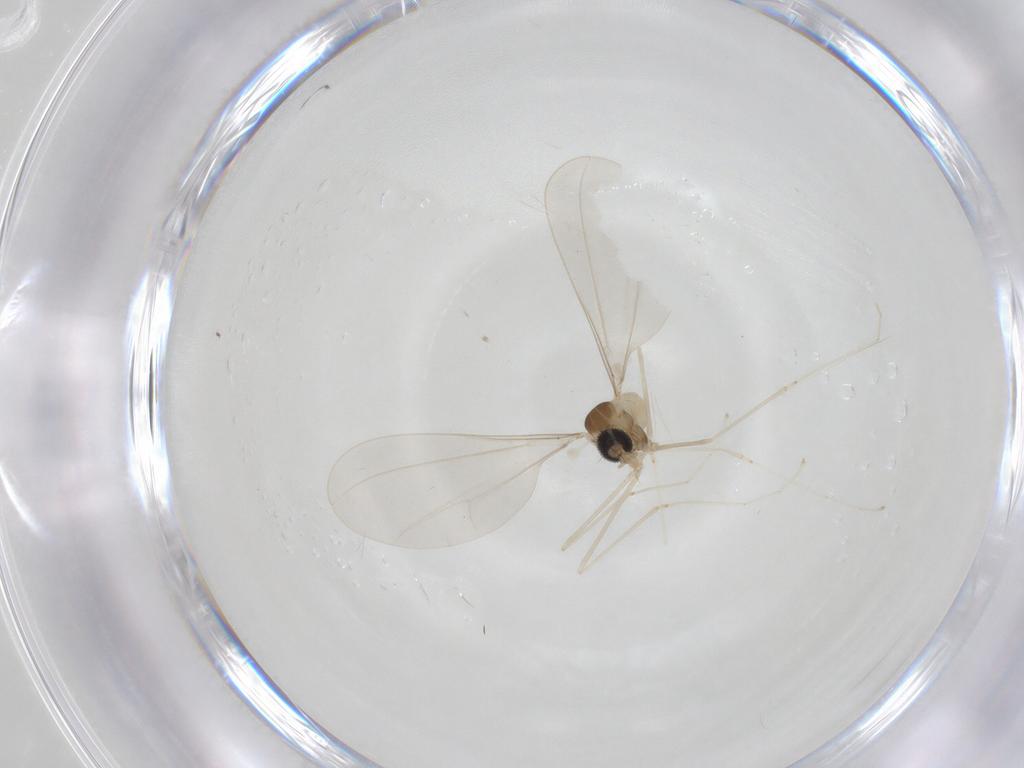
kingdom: Animalia
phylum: Arthropoda
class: Insecta
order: Diptera
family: Cecidomyiidae
